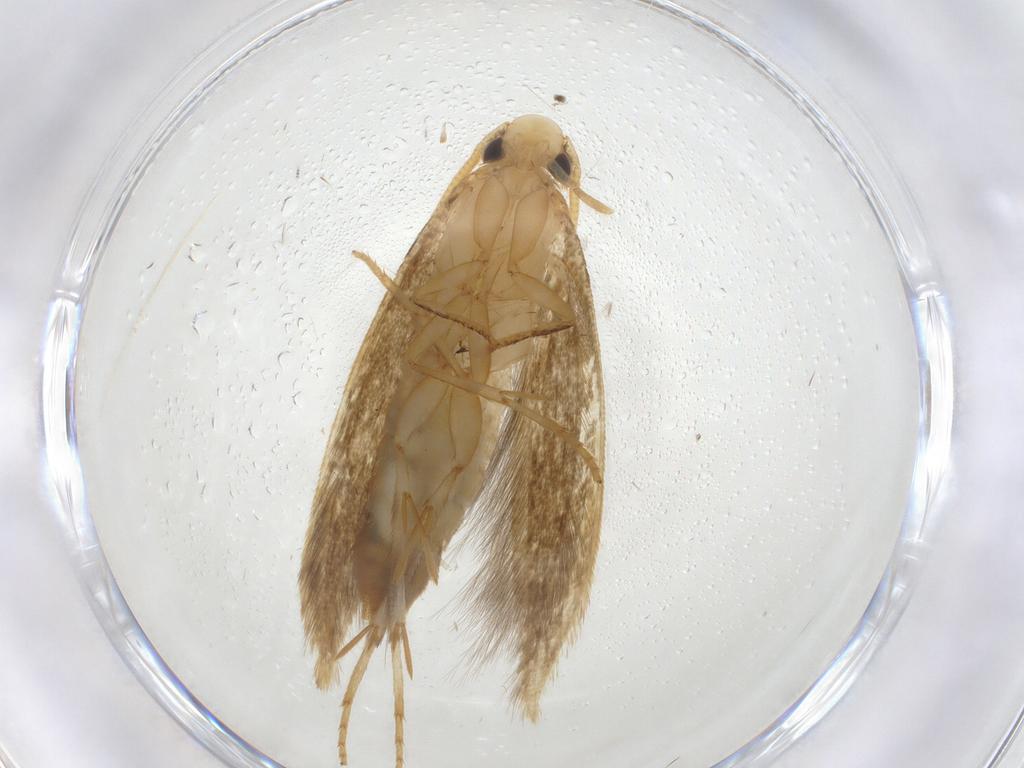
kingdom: Animalia
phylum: Arthropoda
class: Insecta
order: Lepidoptera
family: Tineidae
